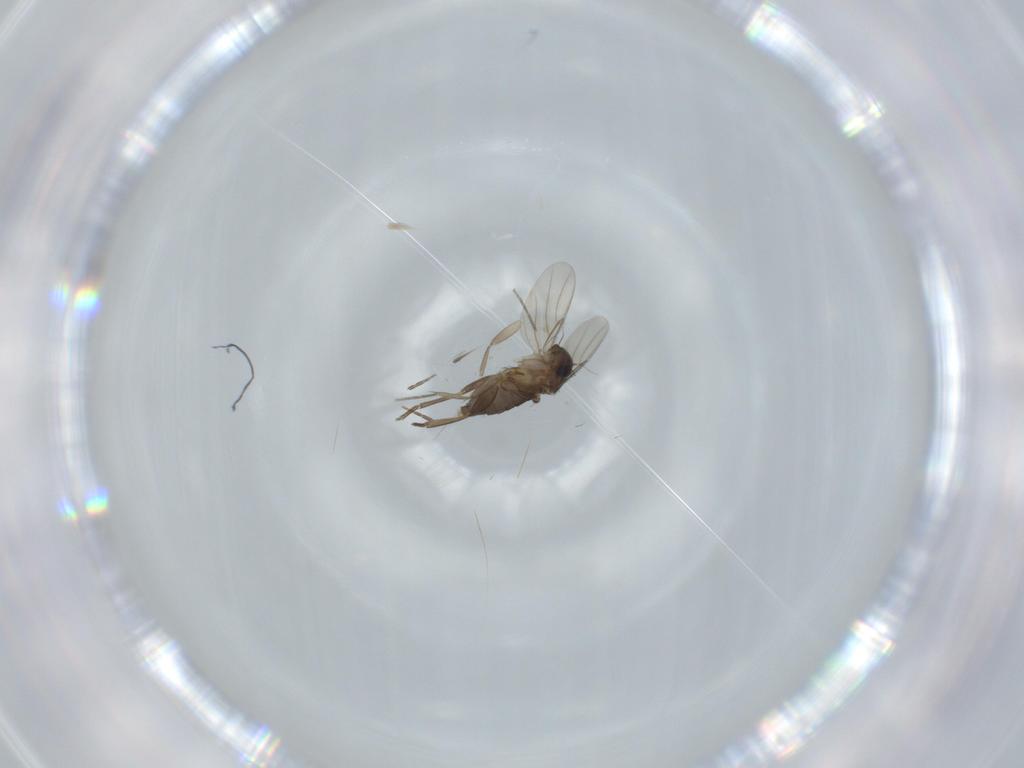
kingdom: Animalia
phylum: Arthropoda
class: Insecta
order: Diptera
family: Phoridae
